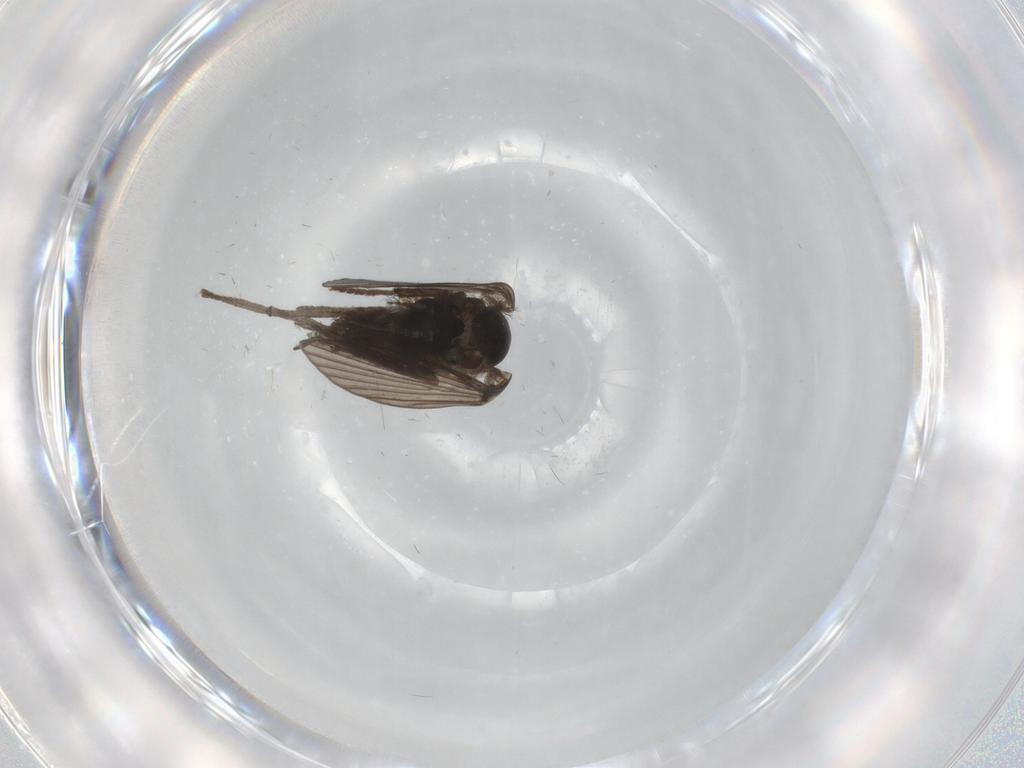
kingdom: Animalia
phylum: Arthropoda
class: Insecta
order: Diptera
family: Psychodidae
